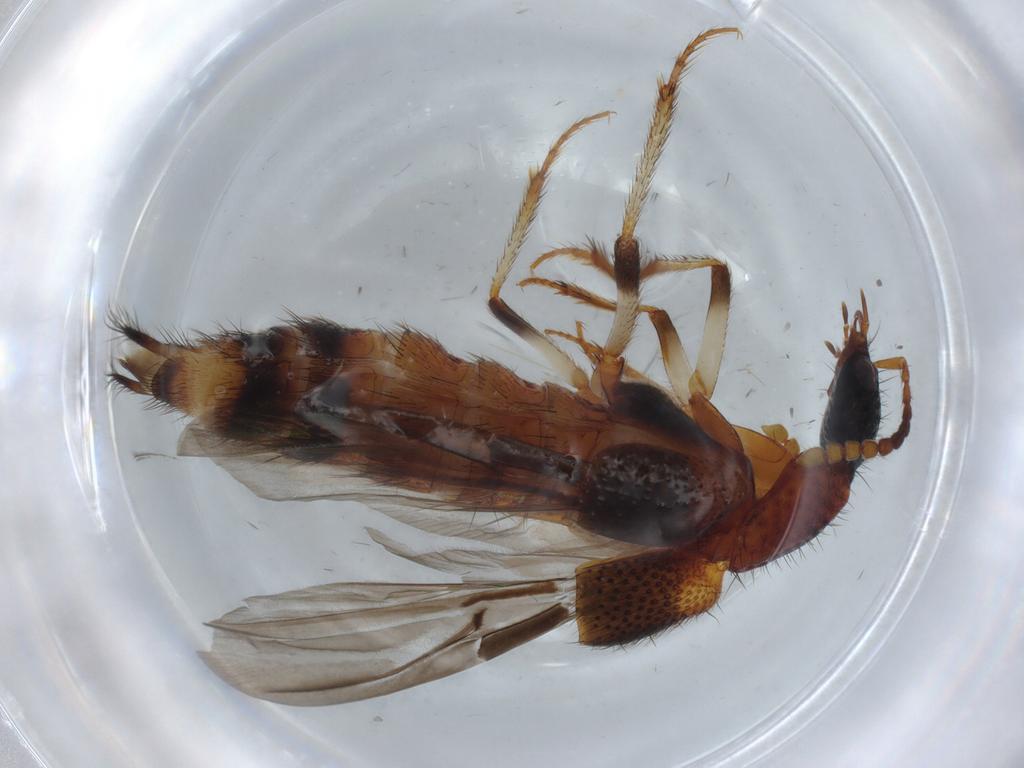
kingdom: Animalia
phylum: Arthropoda
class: Insecta
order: Coleoptera
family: Staphylinidae
